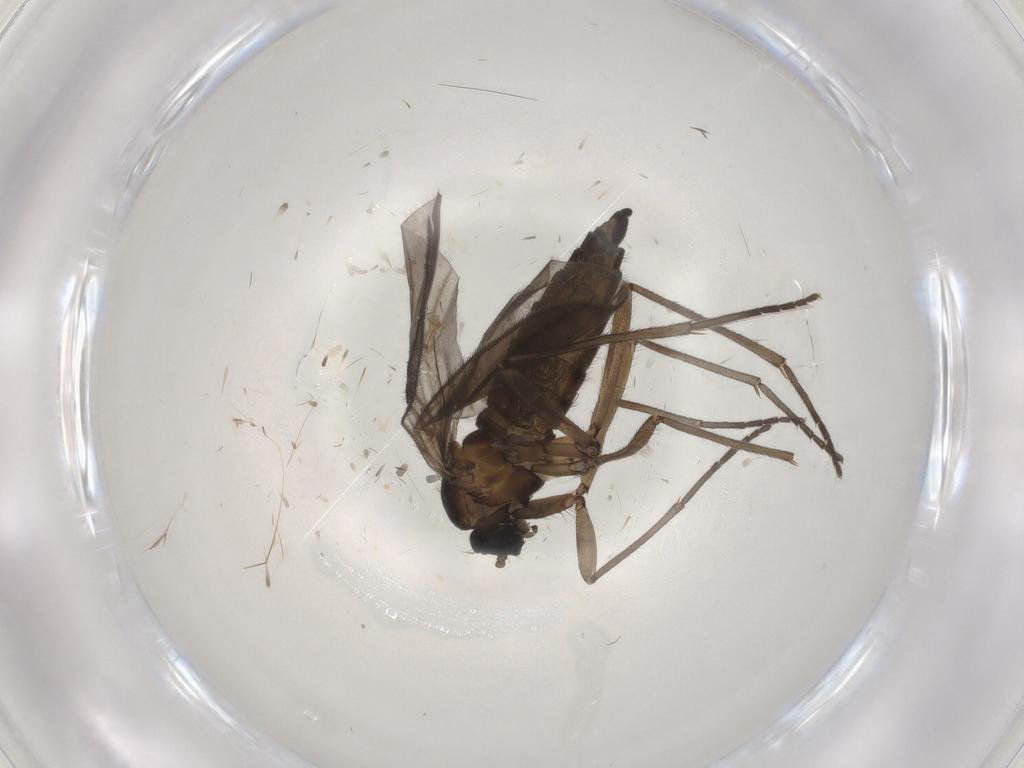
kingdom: Animalia
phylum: Arthropoda
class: Insecta
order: Diptera
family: Sciaridae
